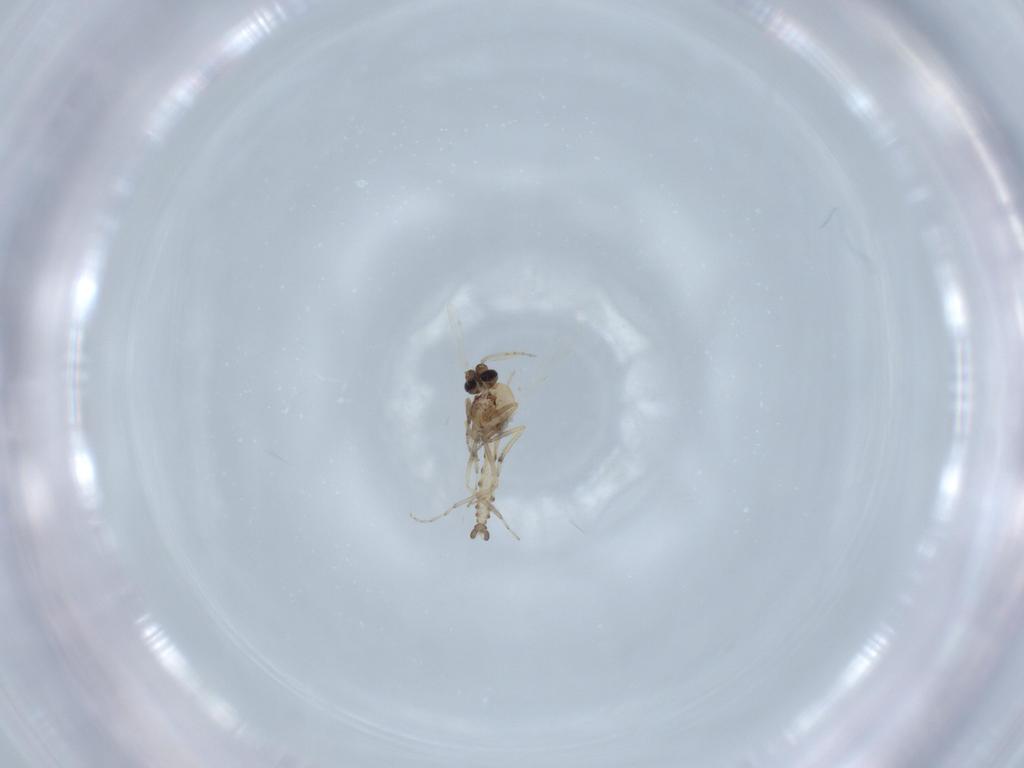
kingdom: Animalia
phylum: Arthropoda
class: Insecta
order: Diptera
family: Ceratopogonidae
